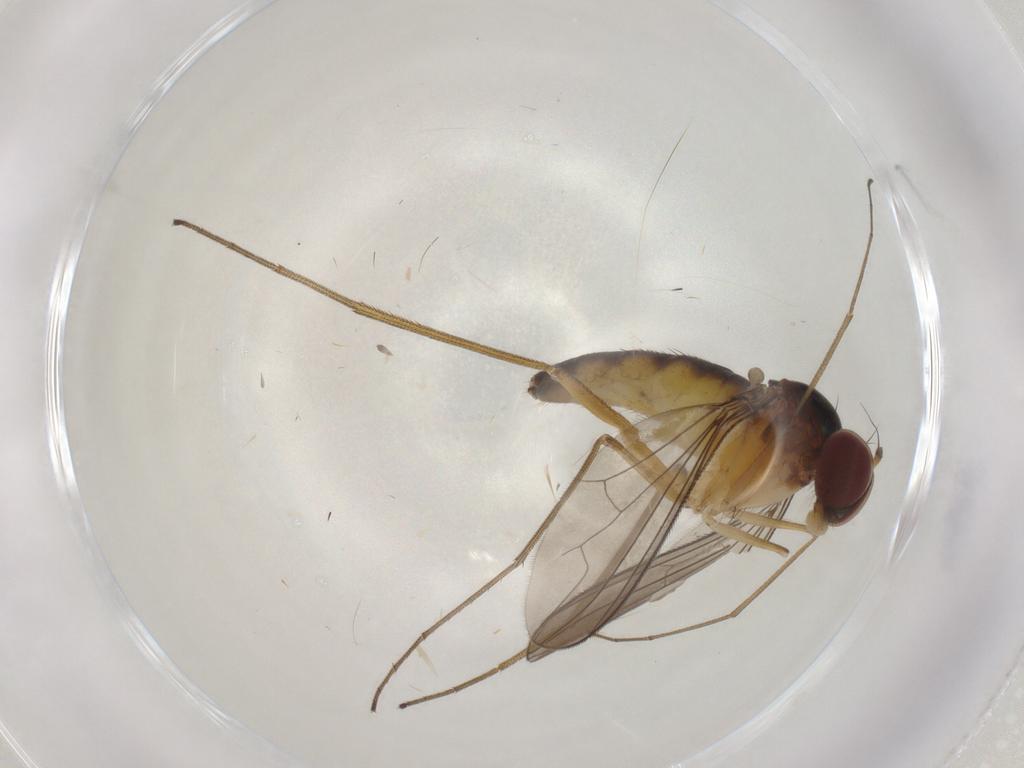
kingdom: Animalia
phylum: Arthropoda
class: Insecta
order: Diptera
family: Dolichopodidae
